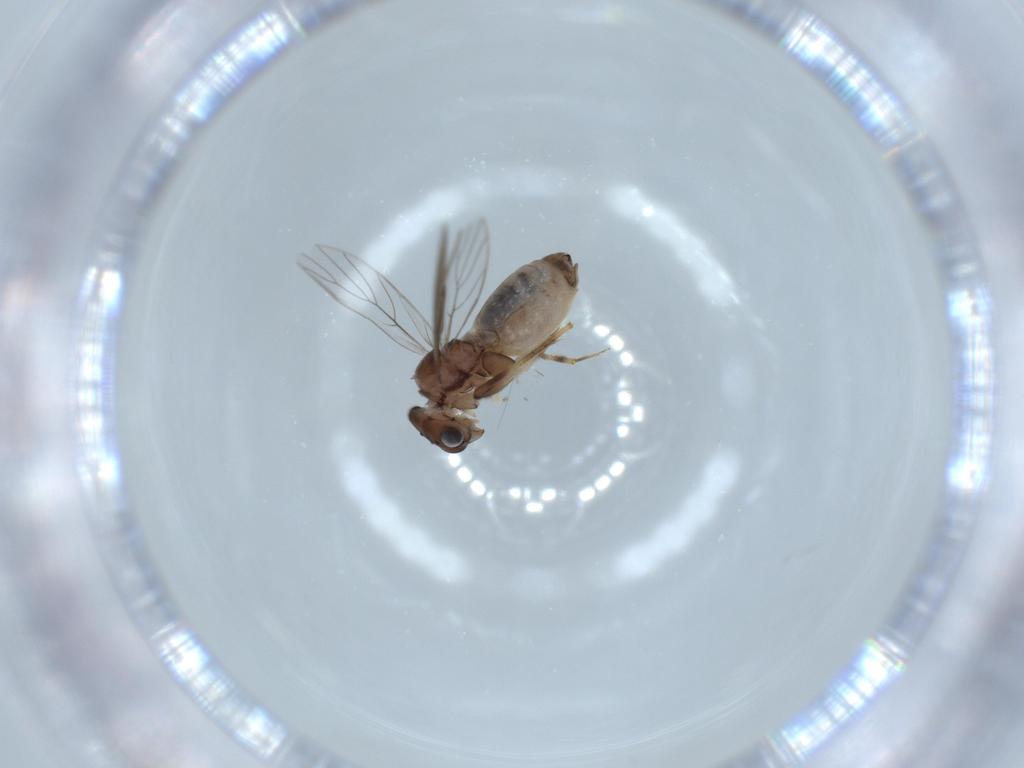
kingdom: Animalia
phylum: Arthropoda
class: Insecta
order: Psocodea
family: Lepidopsocidae
